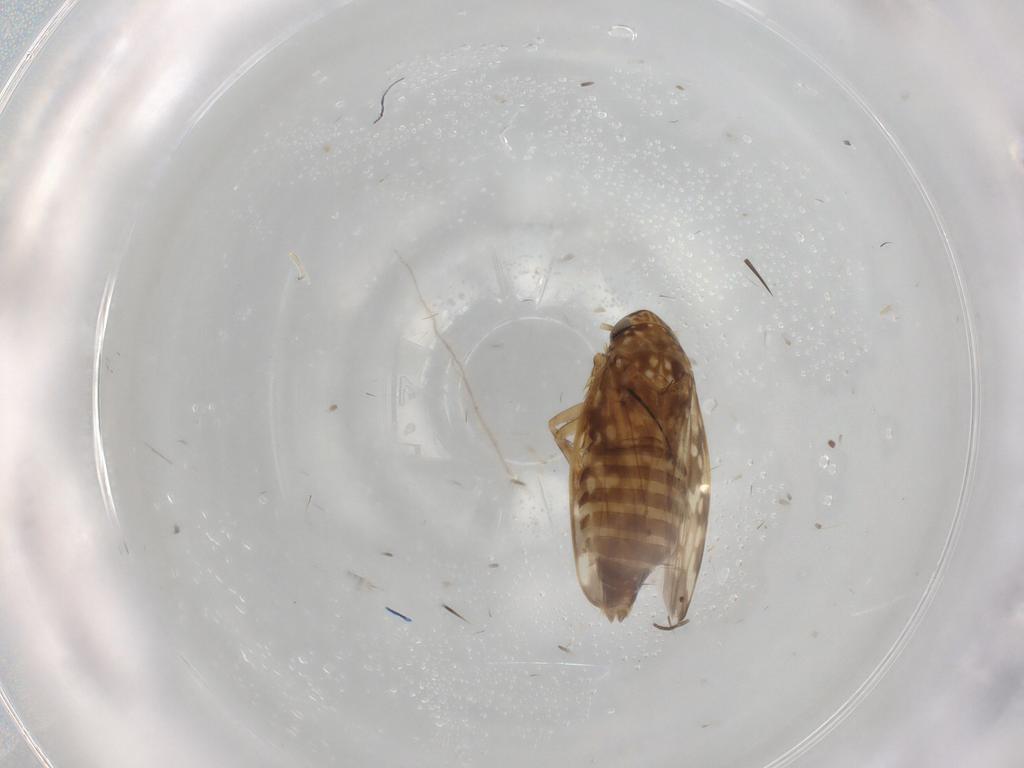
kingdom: Animalia
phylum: Arthropoda
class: Insecta
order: Hemiptera
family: Cicadellidae
